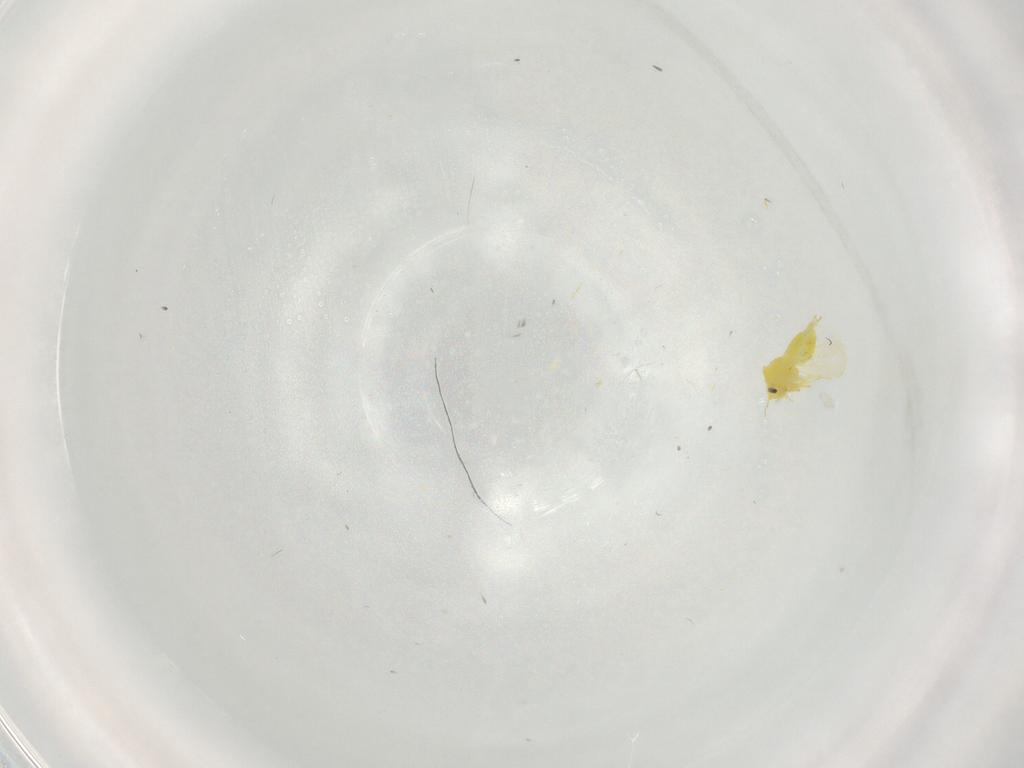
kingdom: Animalia
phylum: Arthropoda
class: Insecta
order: Hemiptera
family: Aleyrodidae
